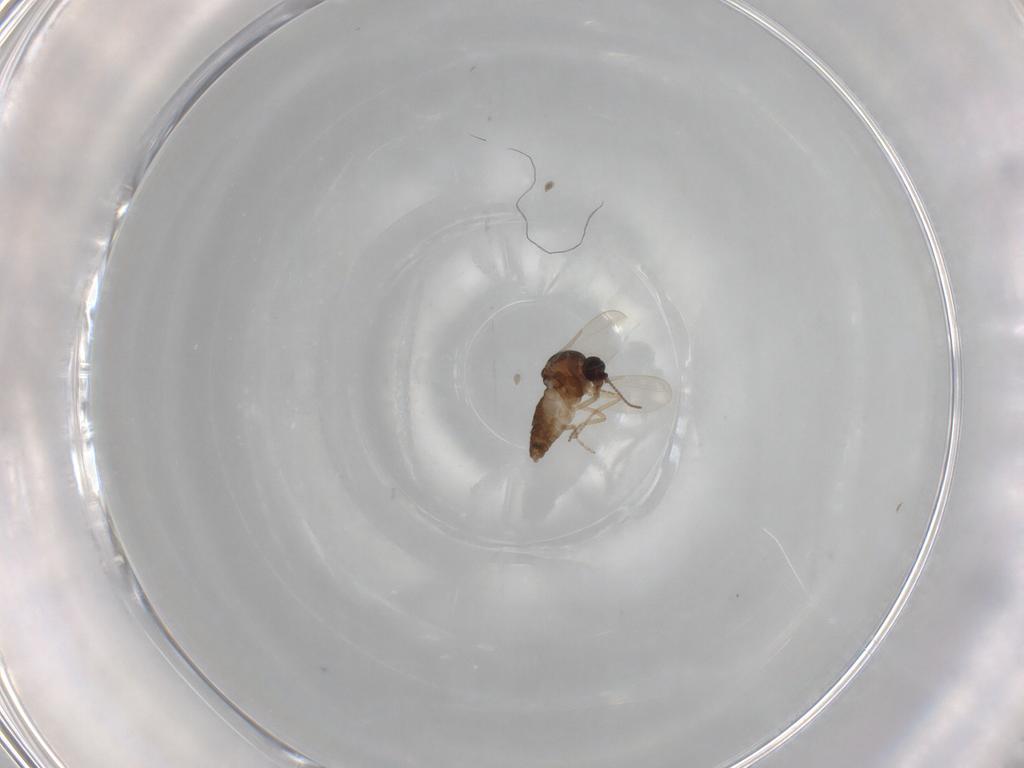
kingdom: Animalia
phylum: Arthropoda
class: Insecta
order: Diptera
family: Ceratopogonidae
